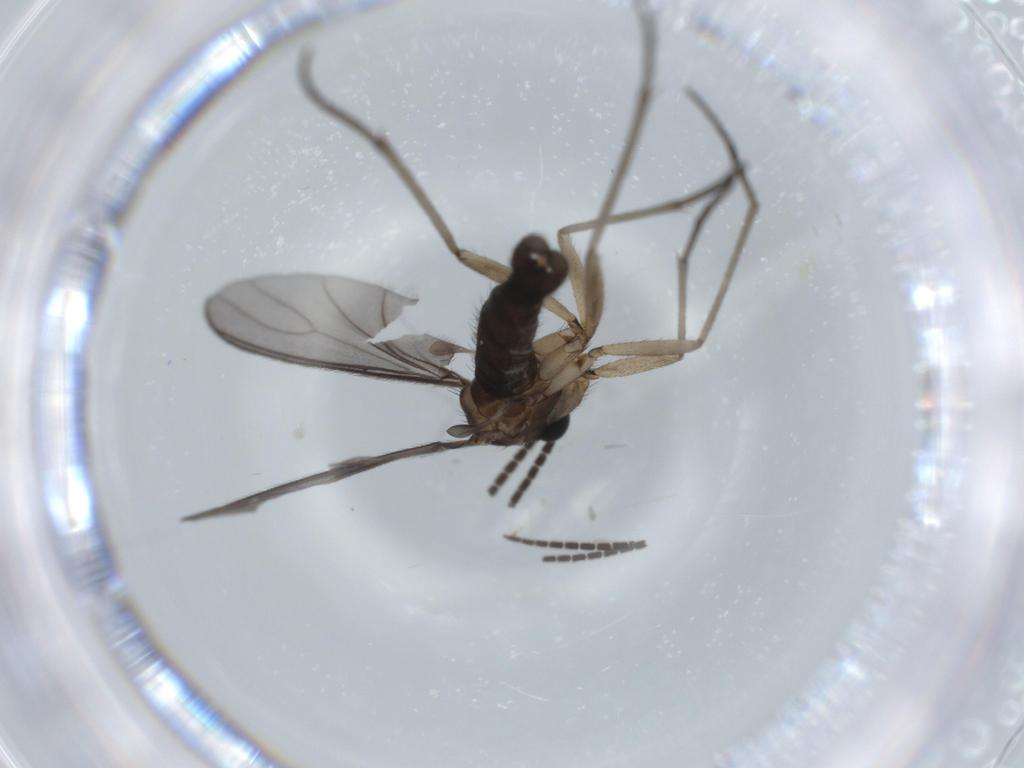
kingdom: Animalia
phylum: Arthropoda
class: Insecta
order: Diptera
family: Sciaridae
